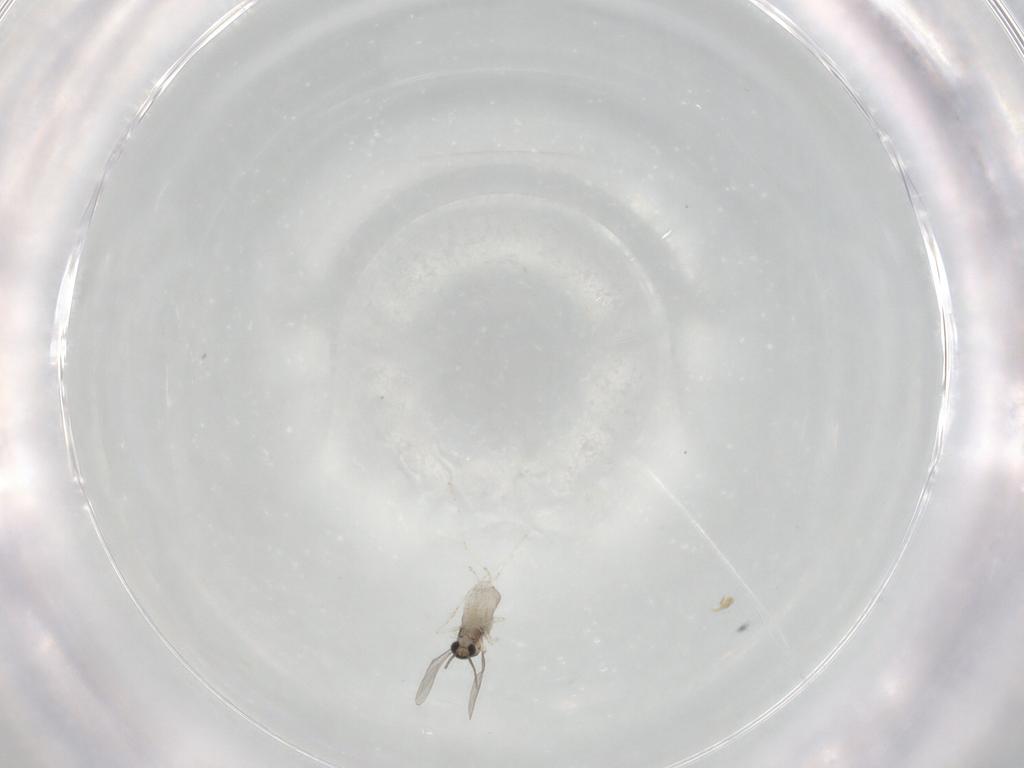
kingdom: Animalia
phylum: Arthropoda
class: Insecta
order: Diptera
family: Cecidomyiidae
